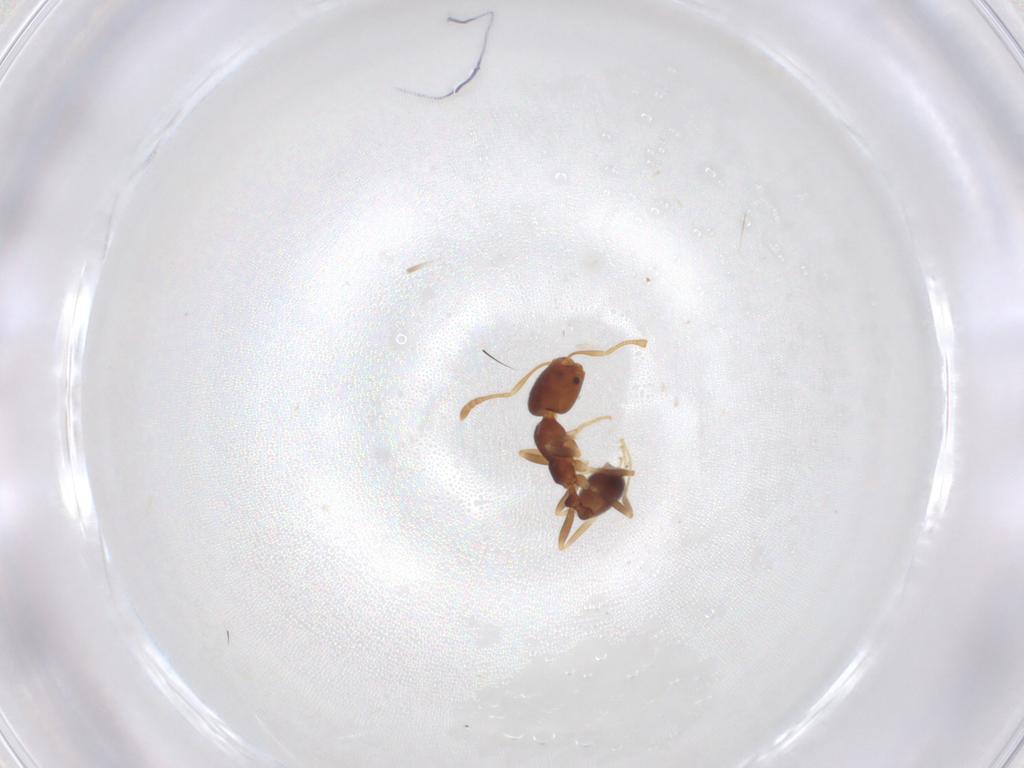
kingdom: Animalia
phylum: Arthropoda
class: Insecta
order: Hymenoptera
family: Formicidae
